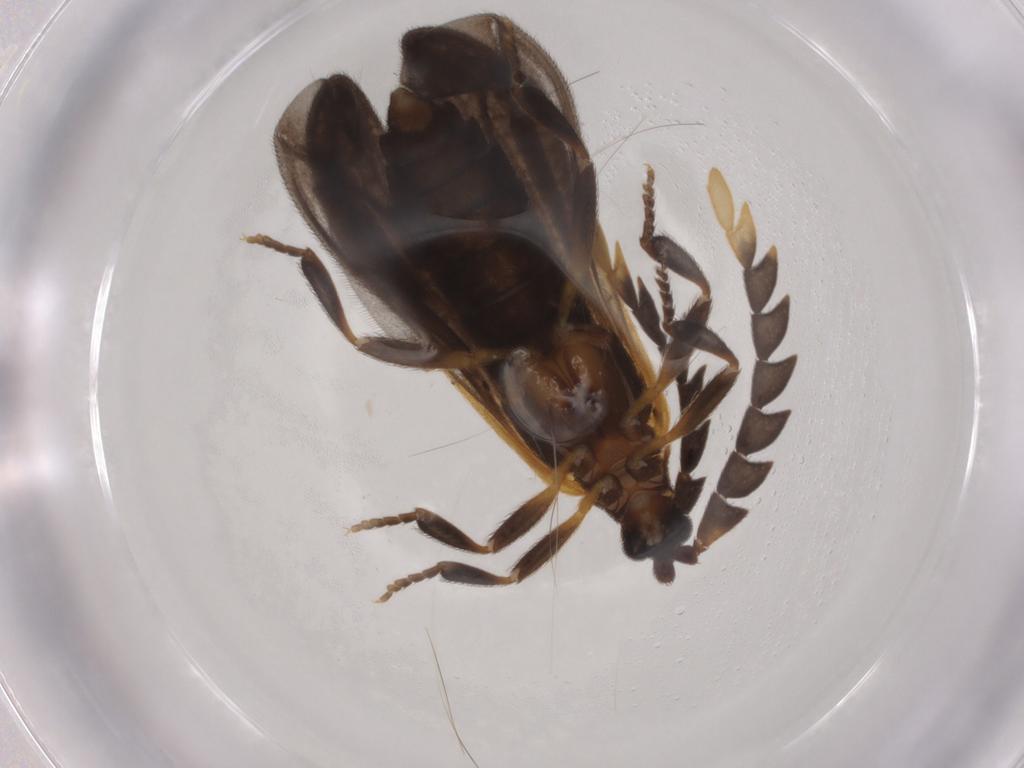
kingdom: Animalia
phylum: Arthropoda
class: Insecta
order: Coleoptera
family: Lycidae
